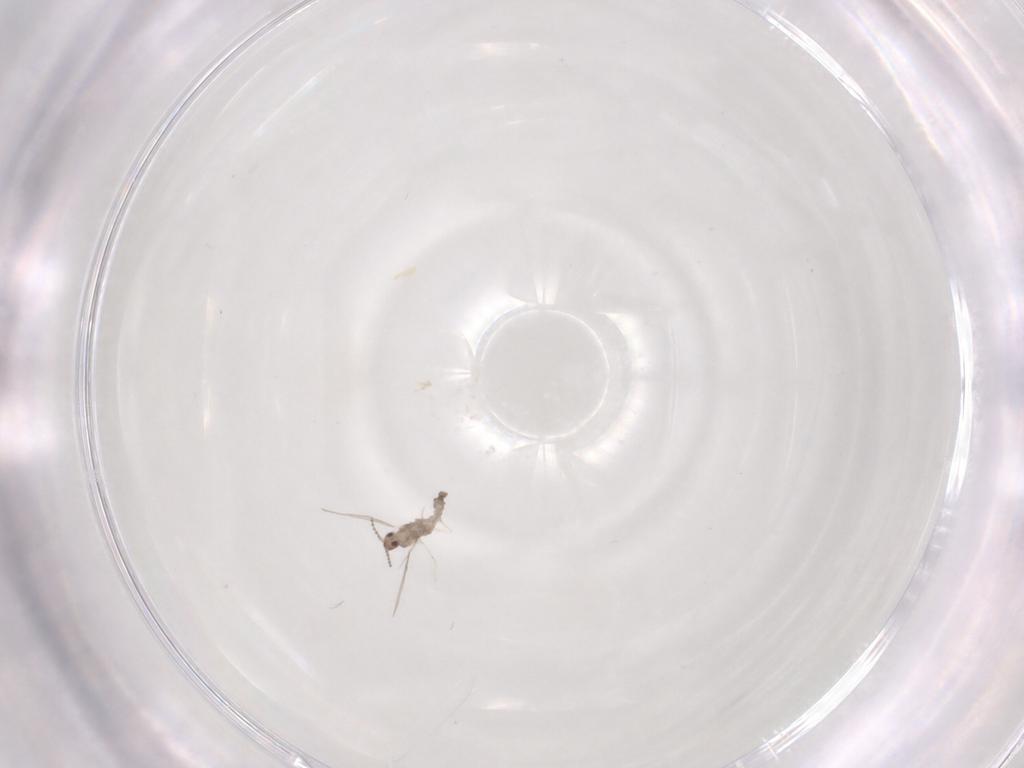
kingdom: Animalia
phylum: Arthropoda
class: Insecta
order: Diptera
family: Cecidomyiidae
